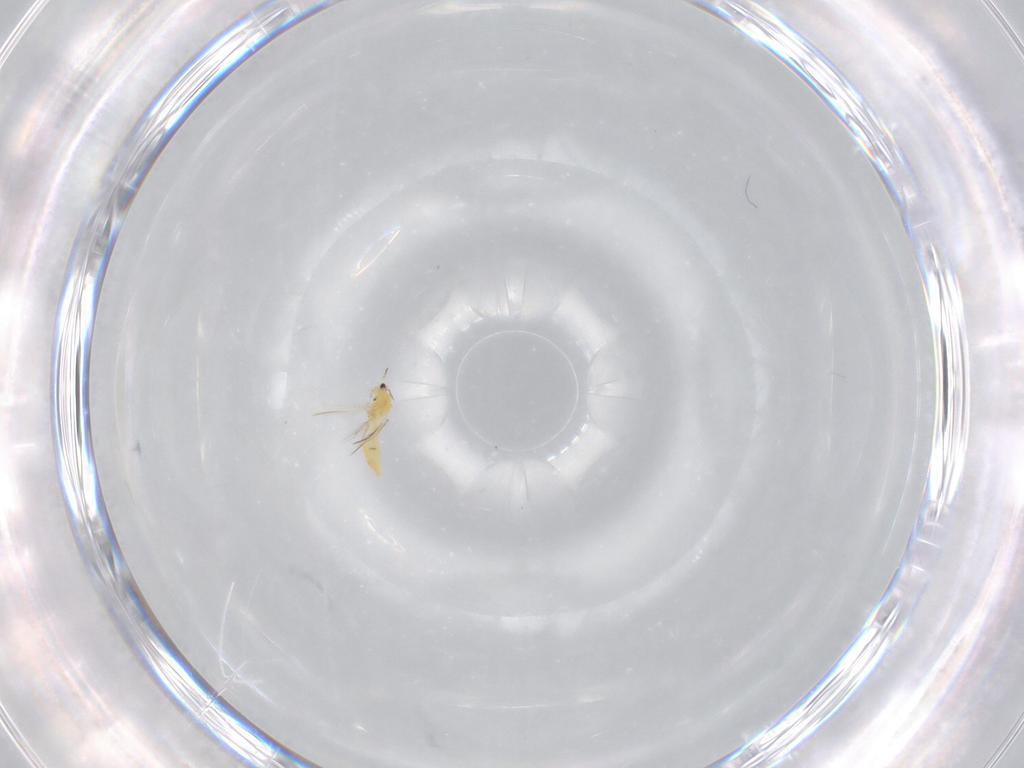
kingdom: Animalia
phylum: Arthropoda
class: Insecta
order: Thysanoptera
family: Thripidae
